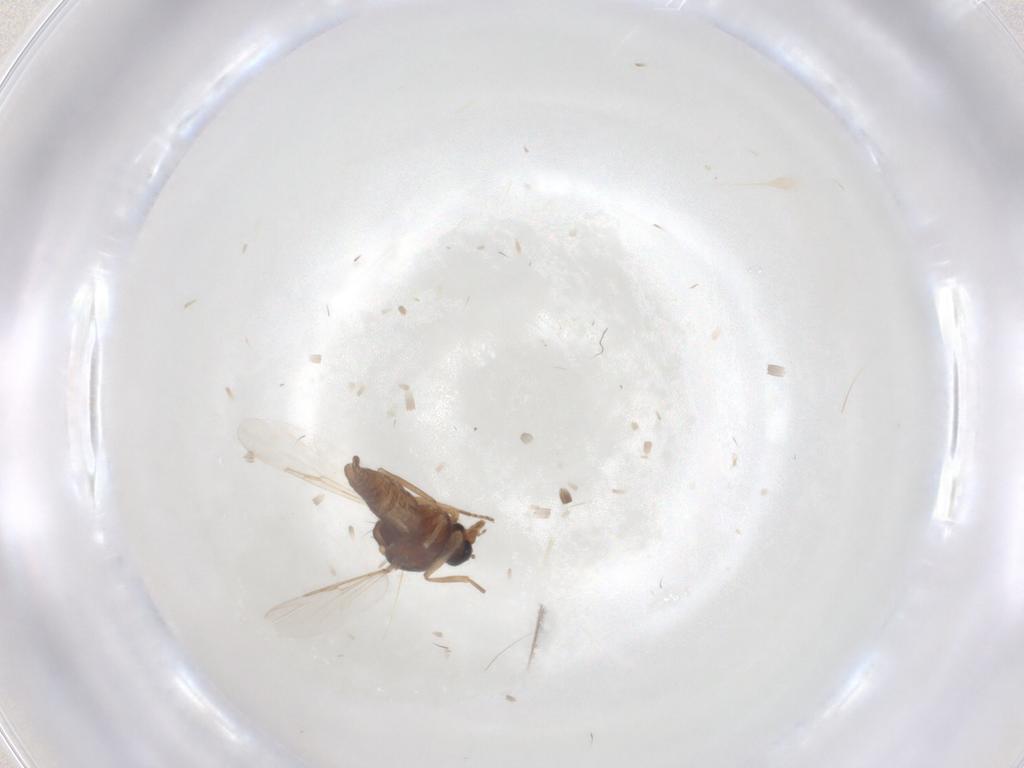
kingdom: Animalia
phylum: Arthropoda
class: Insecta
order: Diptera
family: Ceratopogonidae
